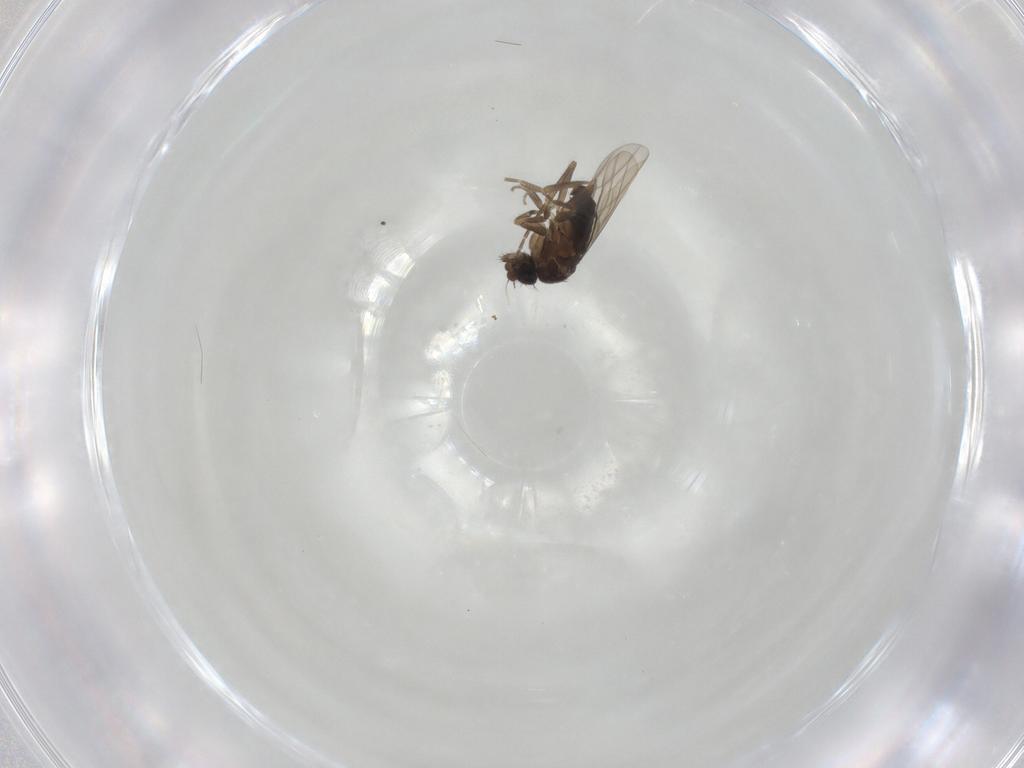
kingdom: Animalia
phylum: Arthropoda
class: Insecta
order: Diptera
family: Phoridae
